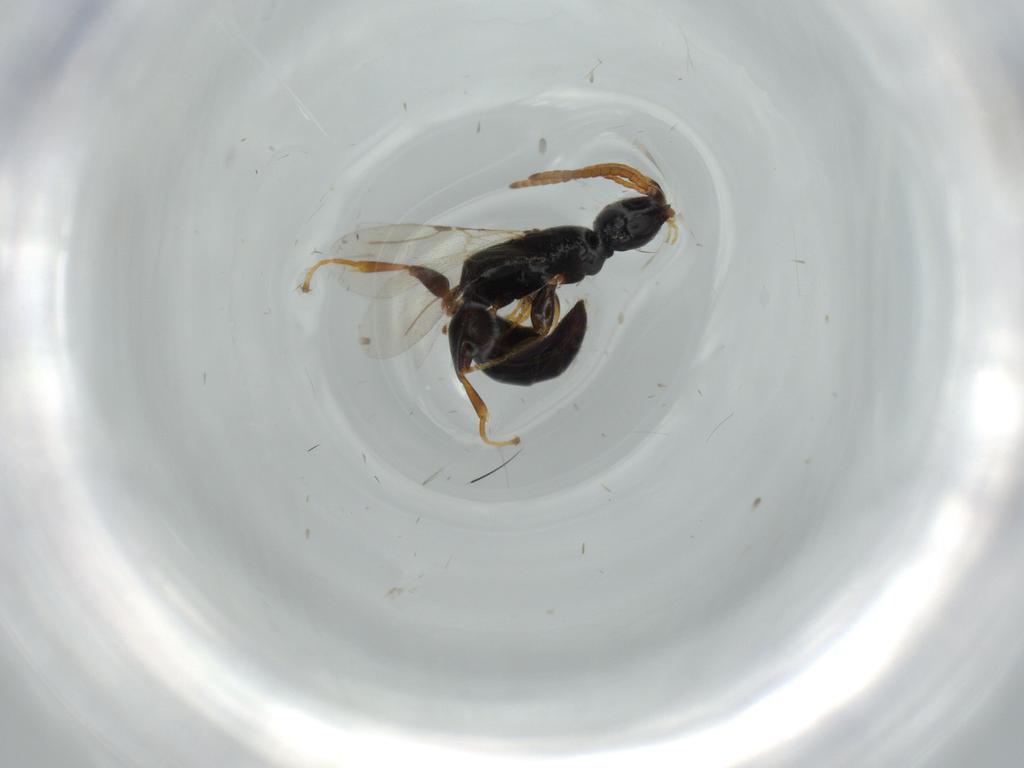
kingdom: Animalia
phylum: Arthropoda
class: Insecta
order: Hymenoptera
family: Bethylidae
